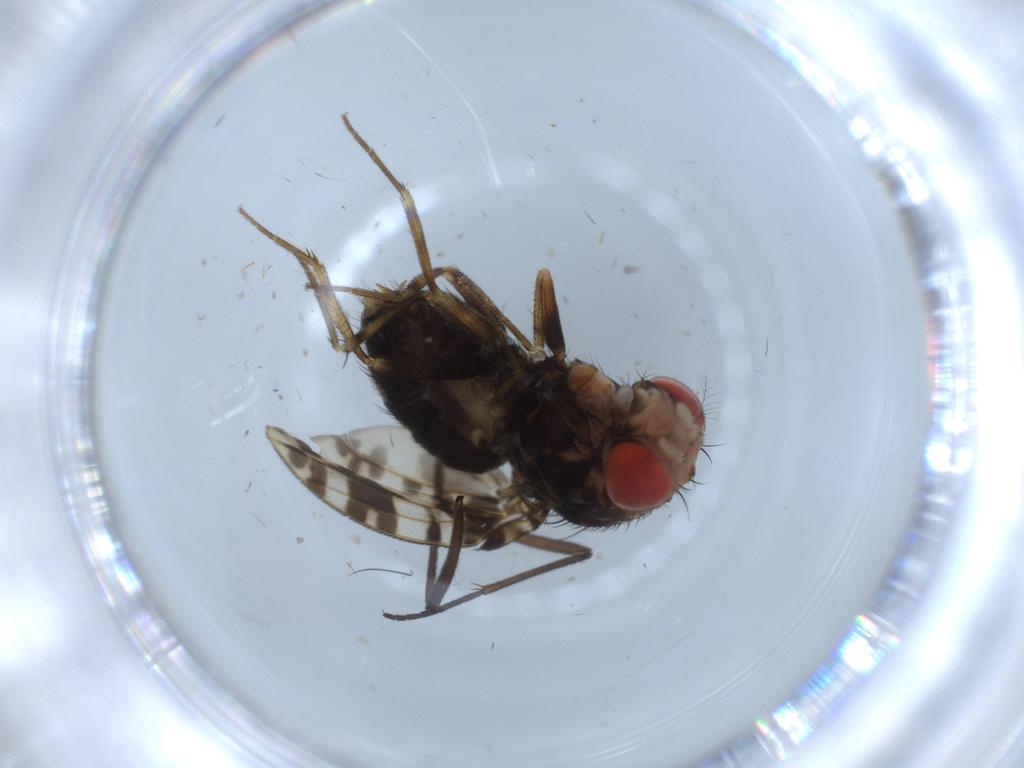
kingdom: Animalia
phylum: Arthropoda
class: Insecta
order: Diptera
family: Drosophilidae
